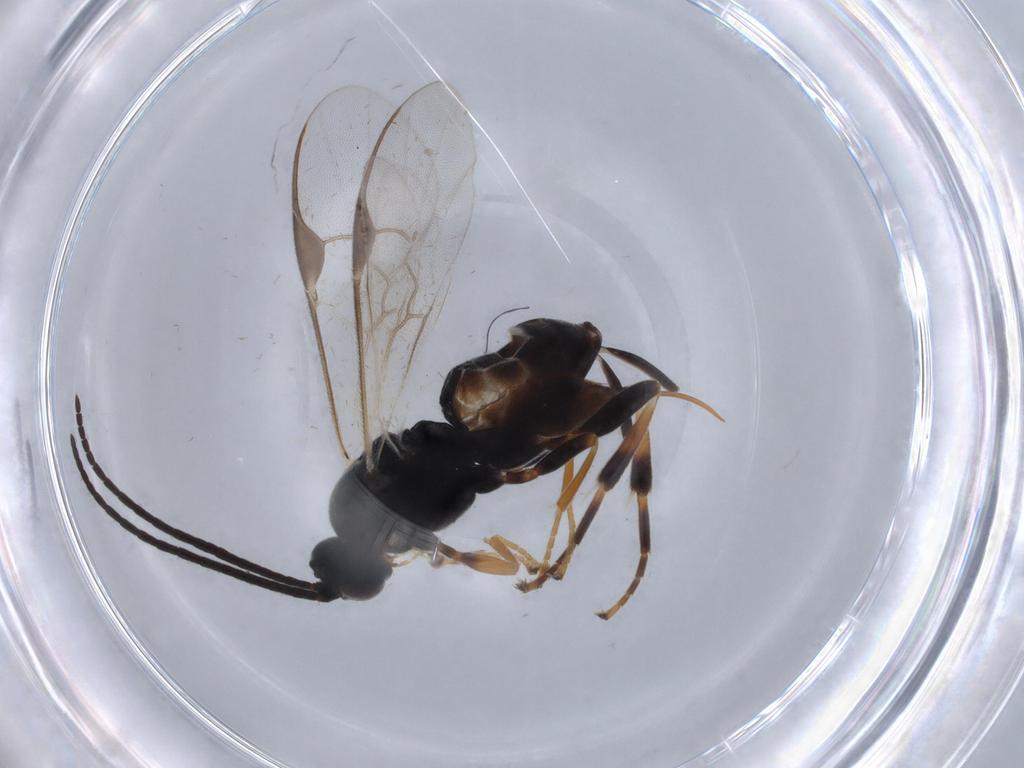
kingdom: Animalia
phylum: Arthropoda
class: Insecta
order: Hymenoptera
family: Braconidae
